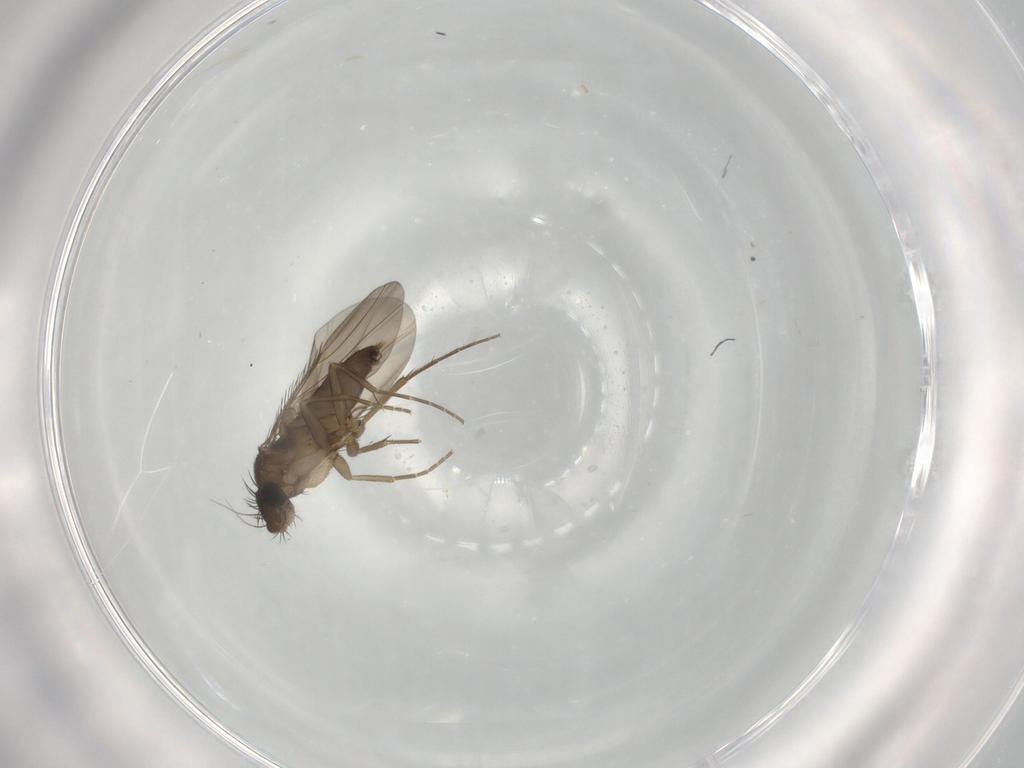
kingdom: Animalia
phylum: Arthropoda
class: Insecta
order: Diptera
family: Phoridae
